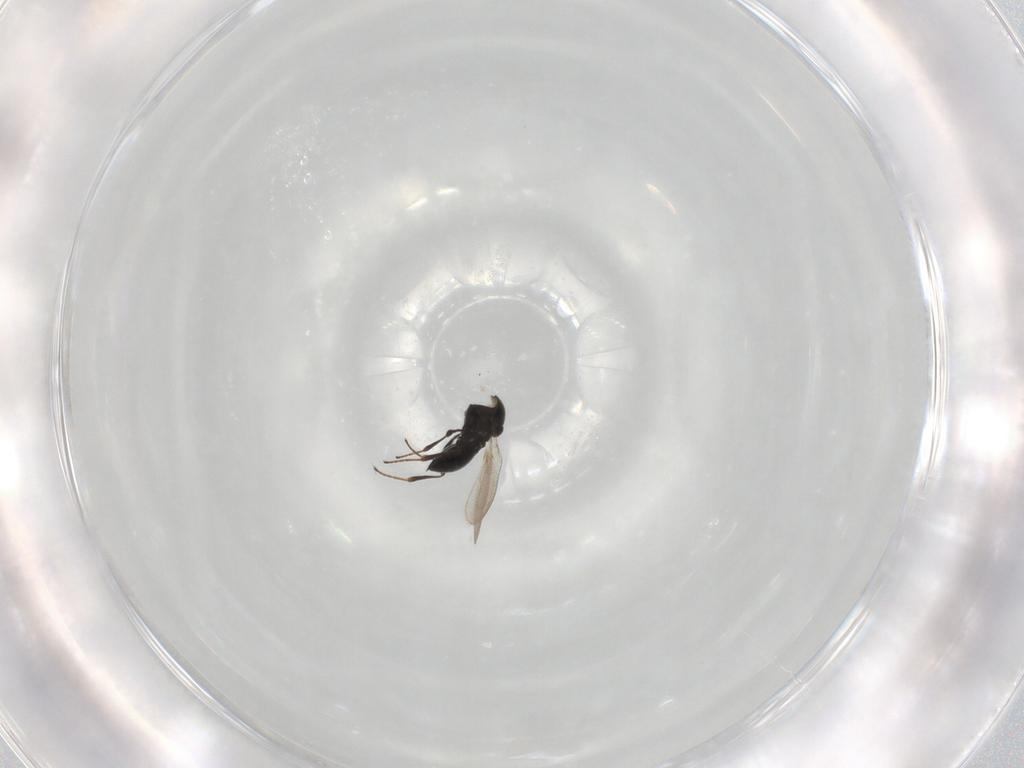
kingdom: Animalia
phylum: Arthropoda
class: Insecta
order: Hymenoptera
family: Platygastridae
